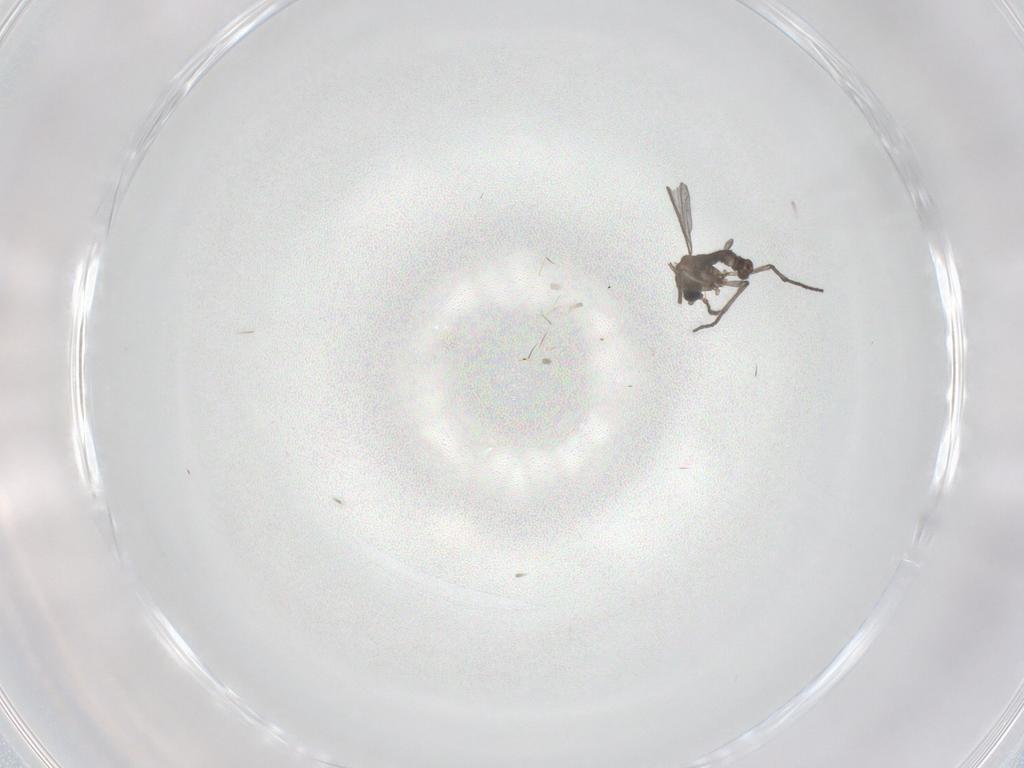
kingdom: Animalia
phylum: Arthropoda
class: Insecta
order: Diptera
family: Sciaridae
